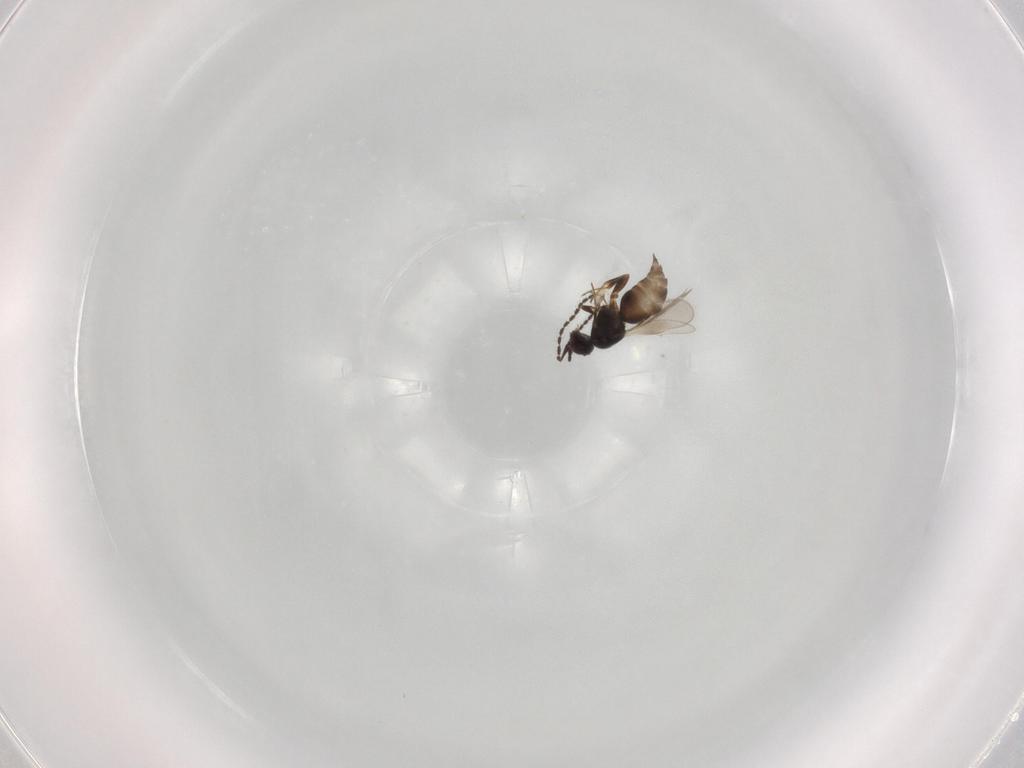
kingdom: Animalia
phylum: Arthropoda
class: Insecta
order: Hymenoptera
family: Ceraphronidae
